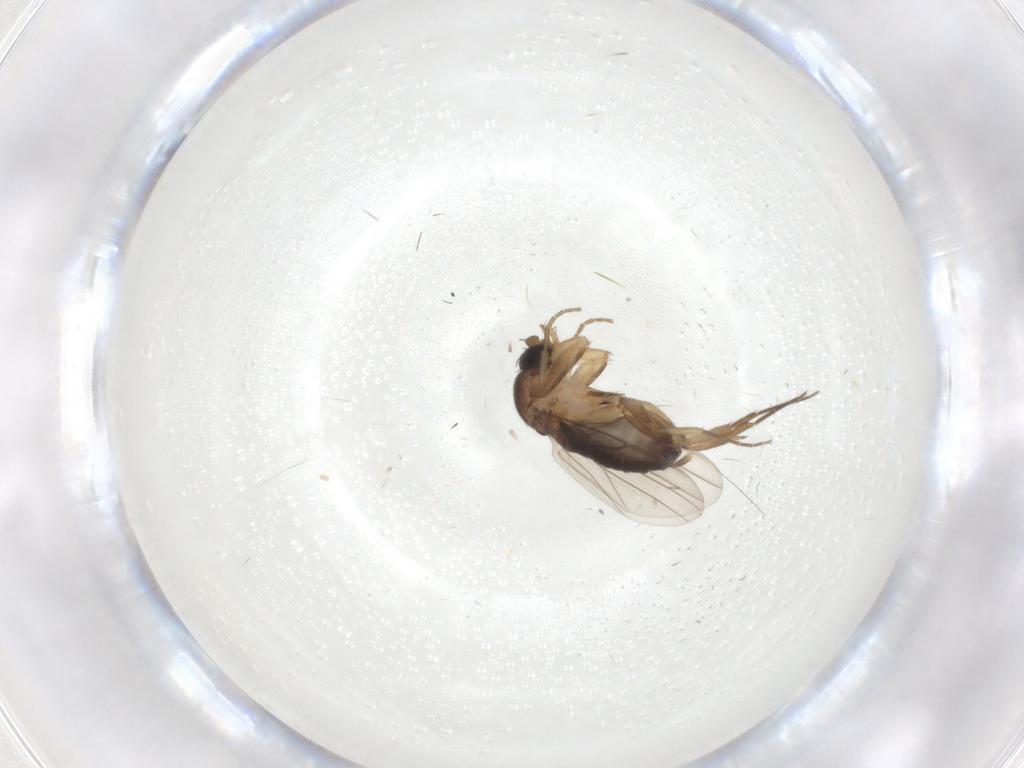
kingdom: Animalia
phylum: Arthropoda
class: Insecta
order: Diptera
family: Phoridae
